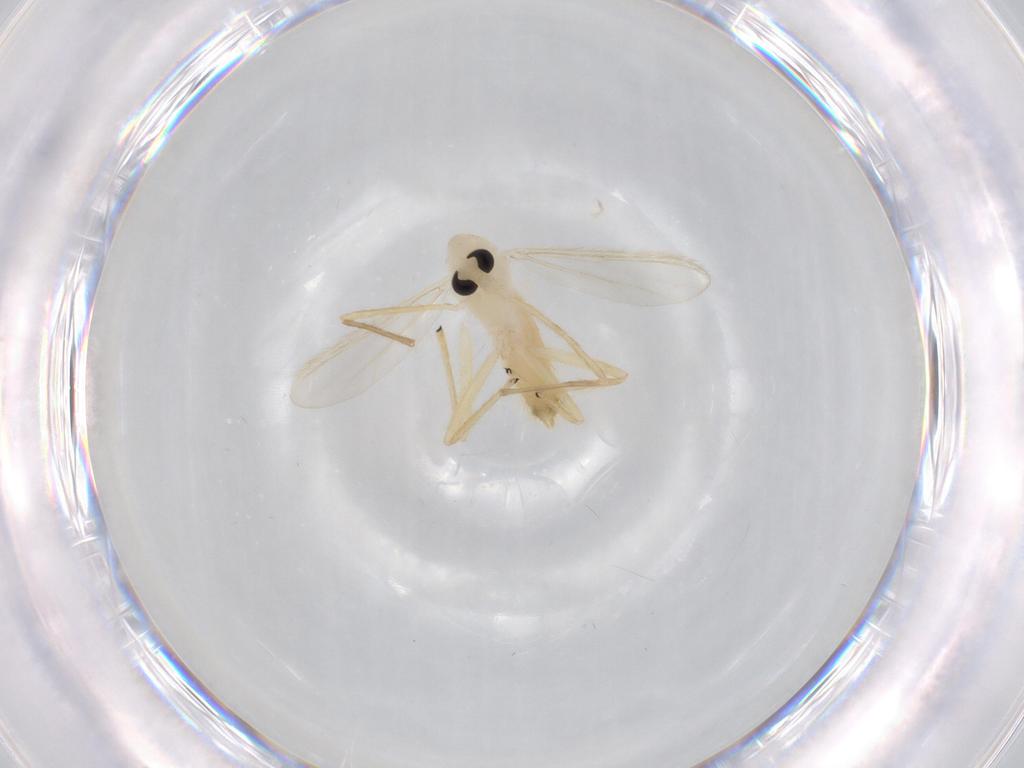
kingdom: Animalia
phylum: Arthropoda
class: Insecta
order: Diptera
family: Chironomidae
